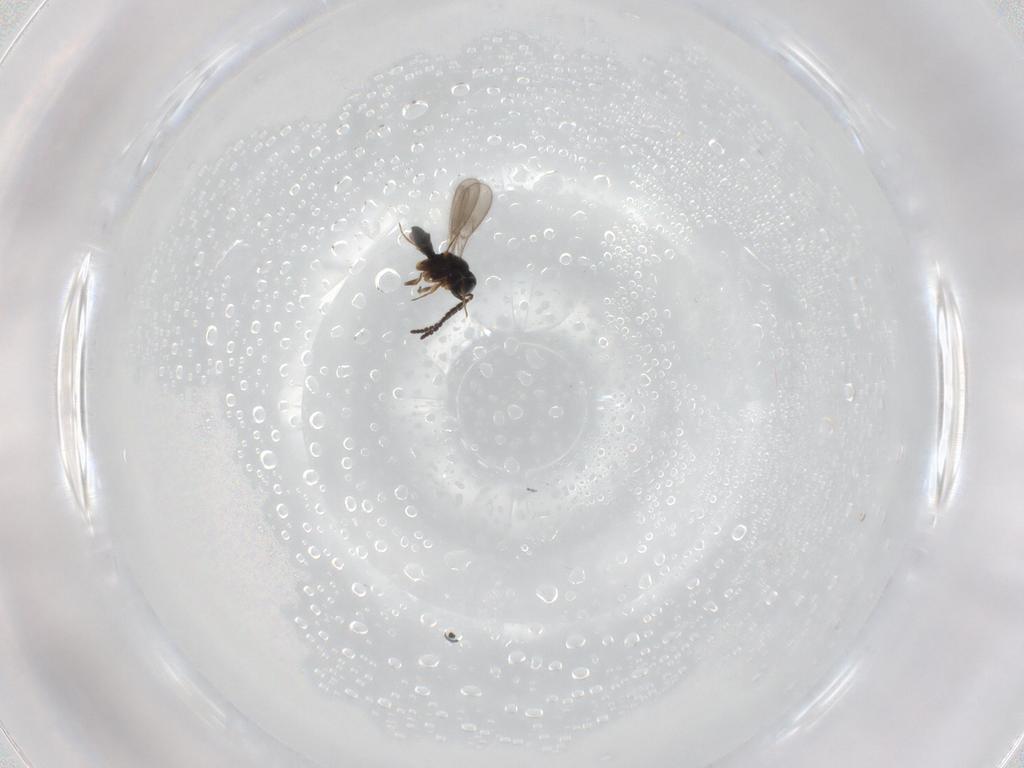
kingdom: Animalia
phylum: Arthropoda
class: Insecta
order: Hymenoptera
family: Scelionidae
